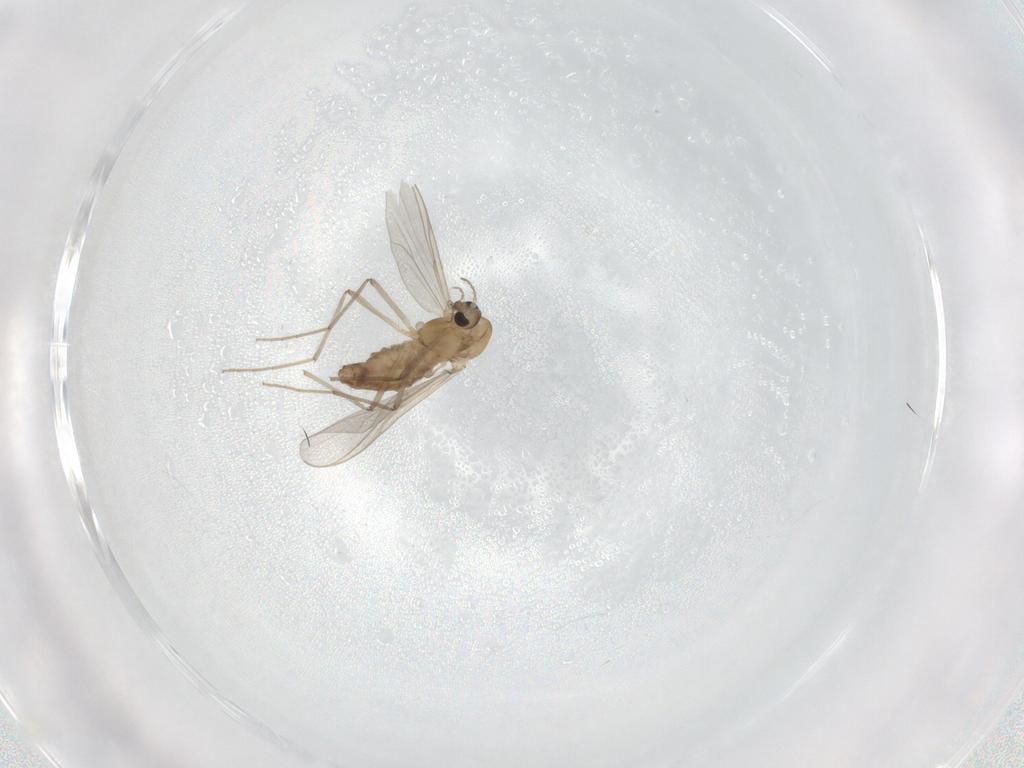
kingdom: Animalia
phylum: Arthropoda
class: Insecta
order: Diptera
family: Chironomidae
